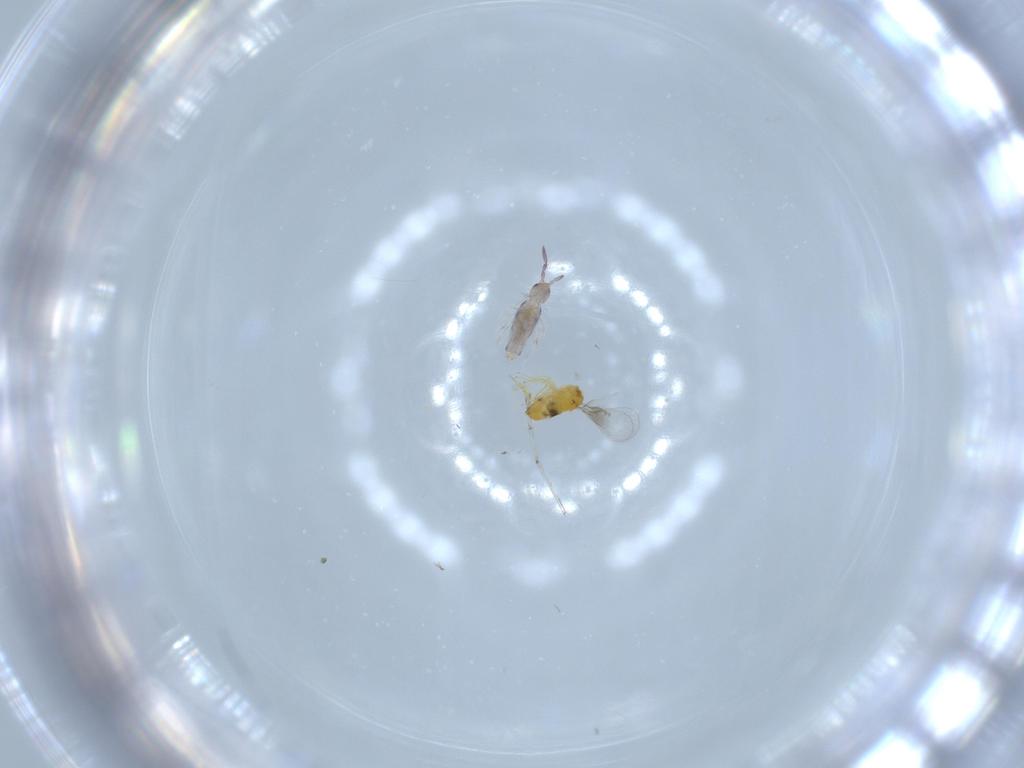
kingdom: Animalia
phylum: Arthropoda
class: Collembola
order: Entomobryomorpha
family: Entomobryidae
